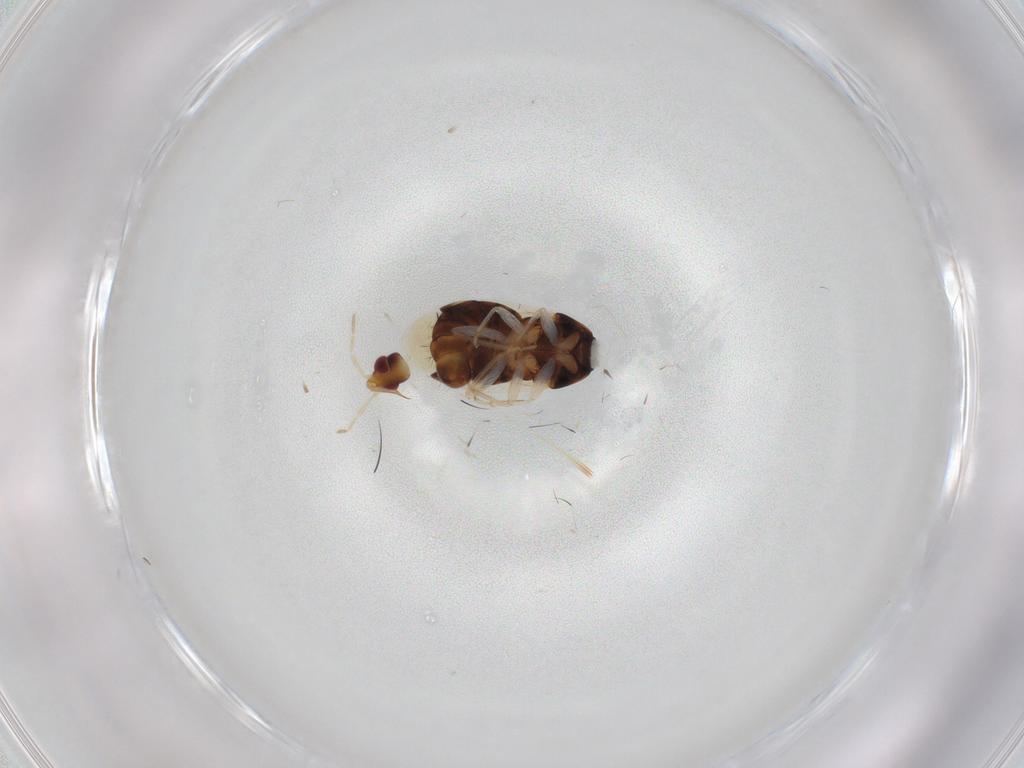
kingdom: Animalia
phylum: Arthropoda
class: Insecta
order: Hemiptera
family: Anthocoridae
